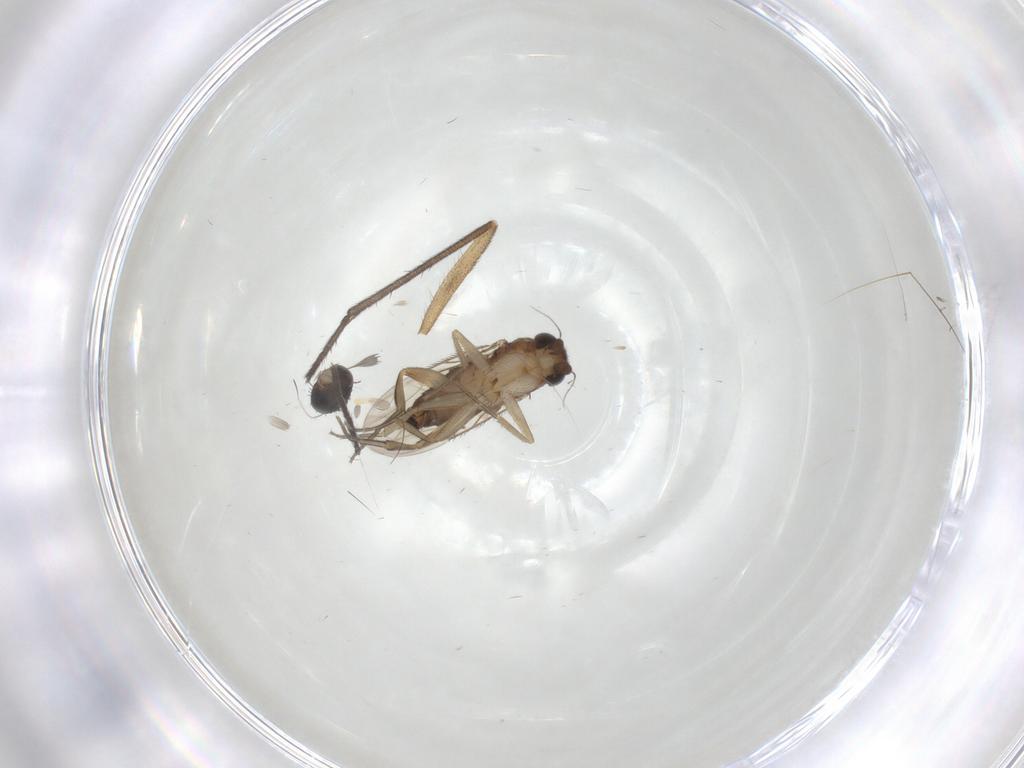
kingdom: Animalia
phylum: Arthropoda
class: Insecta
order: Diptera
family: Phoridae
